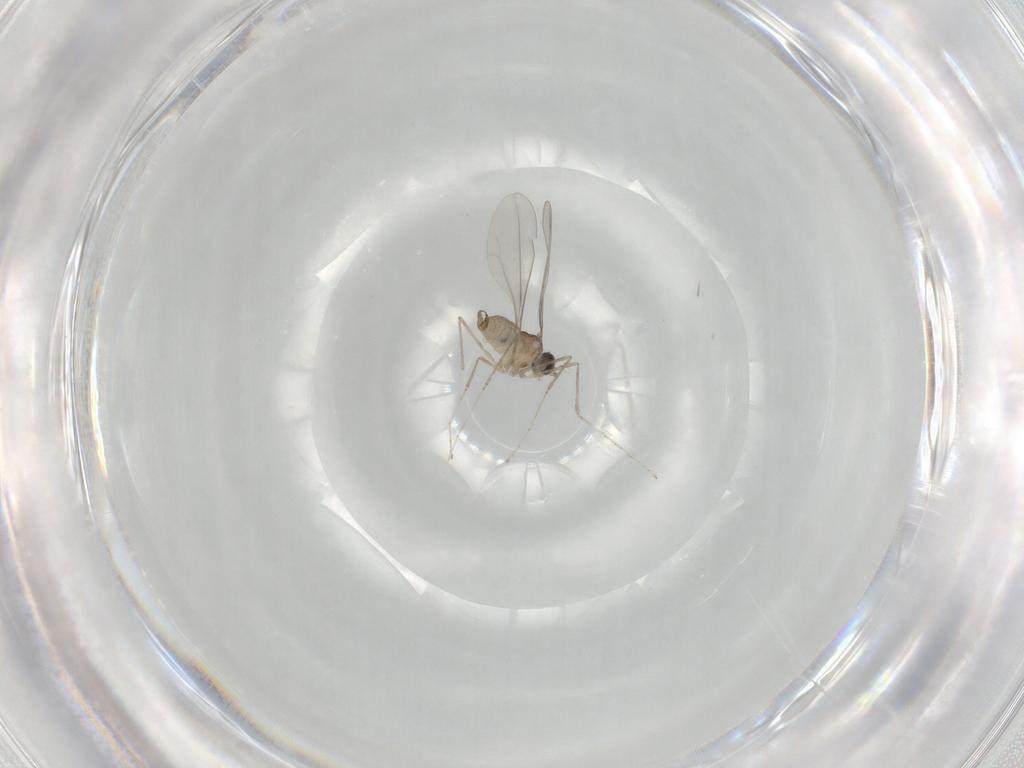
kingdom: Animalia
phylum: Arthropoda
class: Insecta
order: Diptera
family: Cecidomyiidae
